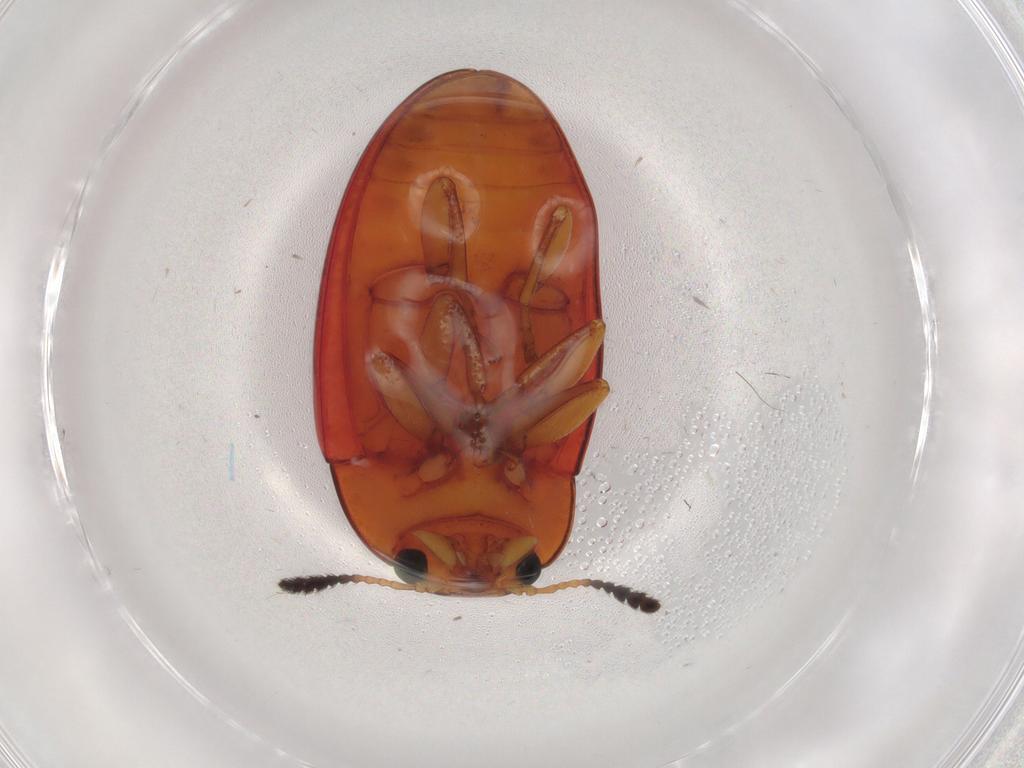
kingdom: Animalia
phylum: Arthropoda
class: Insecta
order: Coleoptera
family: Erotylidae
